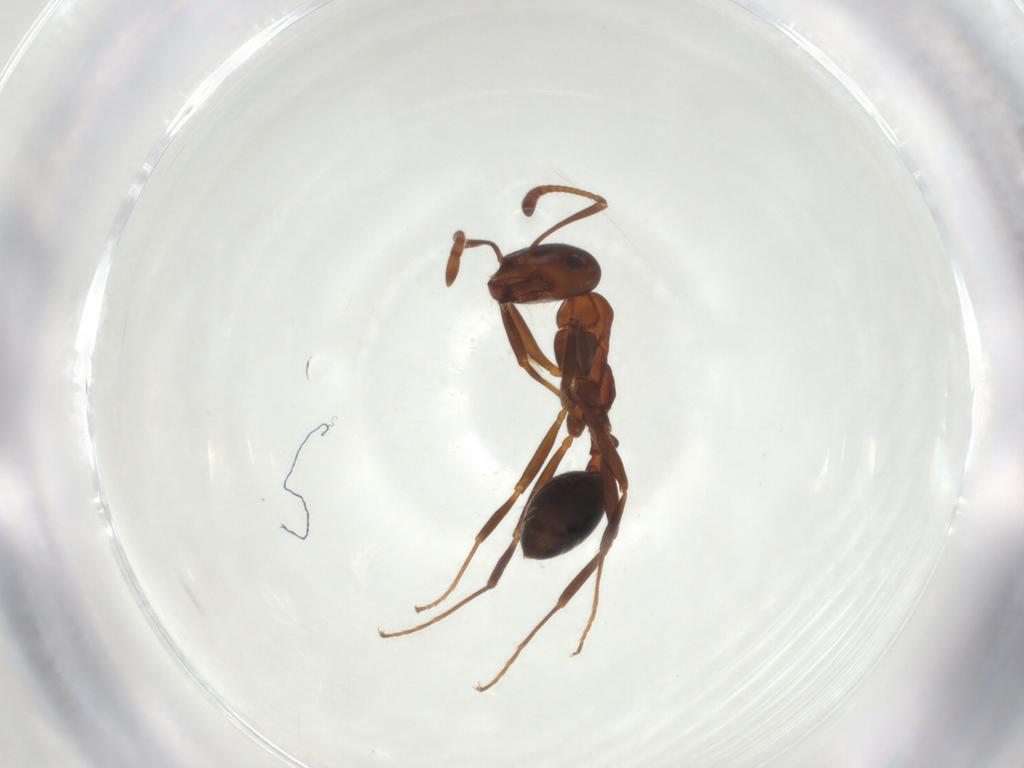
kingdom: Animalia
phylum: Arthropoda
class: Insecta
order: Hymenoptera
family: Formicidae
